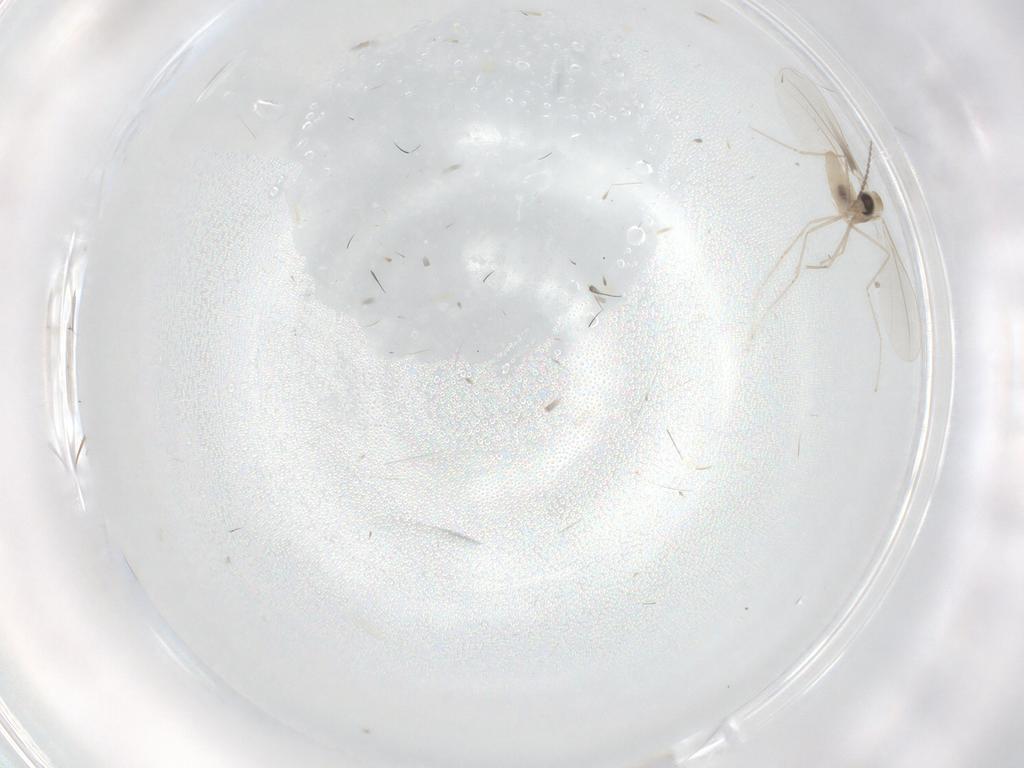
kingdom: Animalia
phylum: Arthropoda
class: Insecta
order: Diptera
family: Cecidomyiidae
